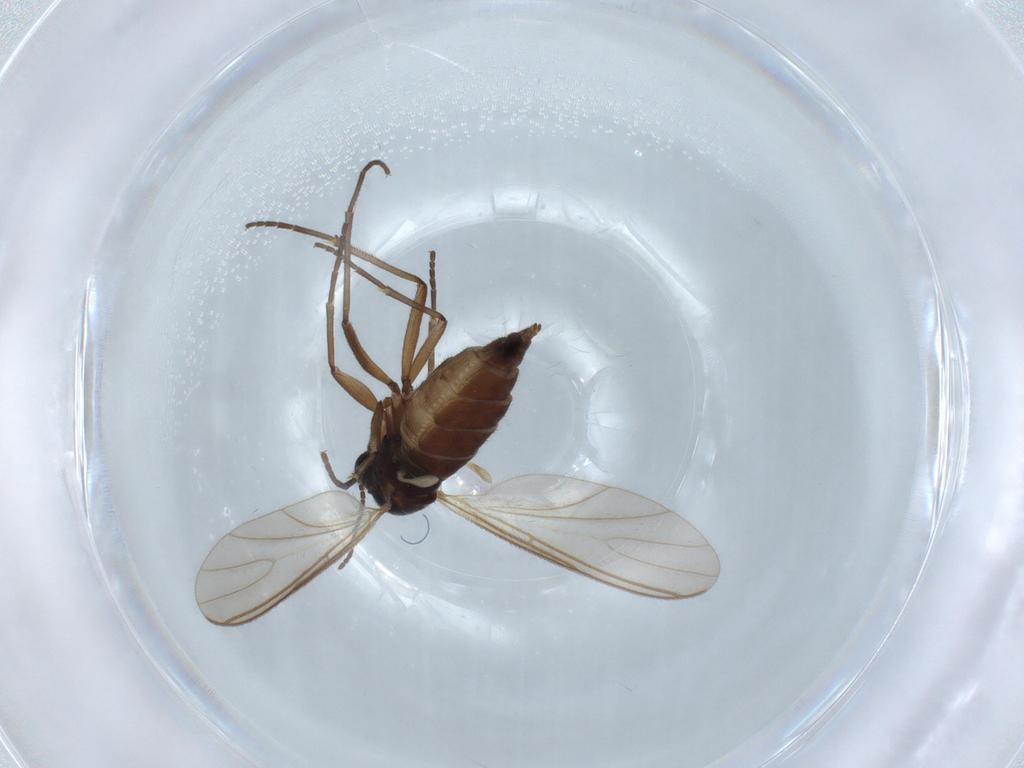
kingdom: Animalia
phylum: Arthropoda
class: Insecta
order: Diptera
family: Sciaridae
